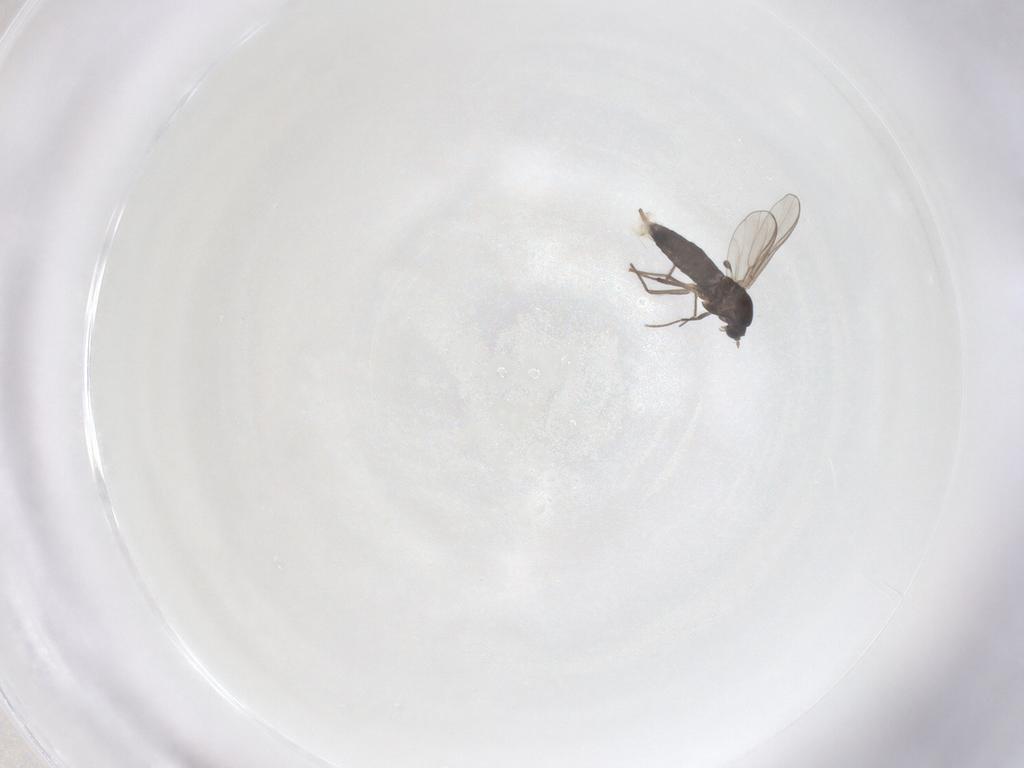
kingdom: Animalia
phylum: Arthropoda
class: Insecta
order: Diptera
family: Chironomidae
